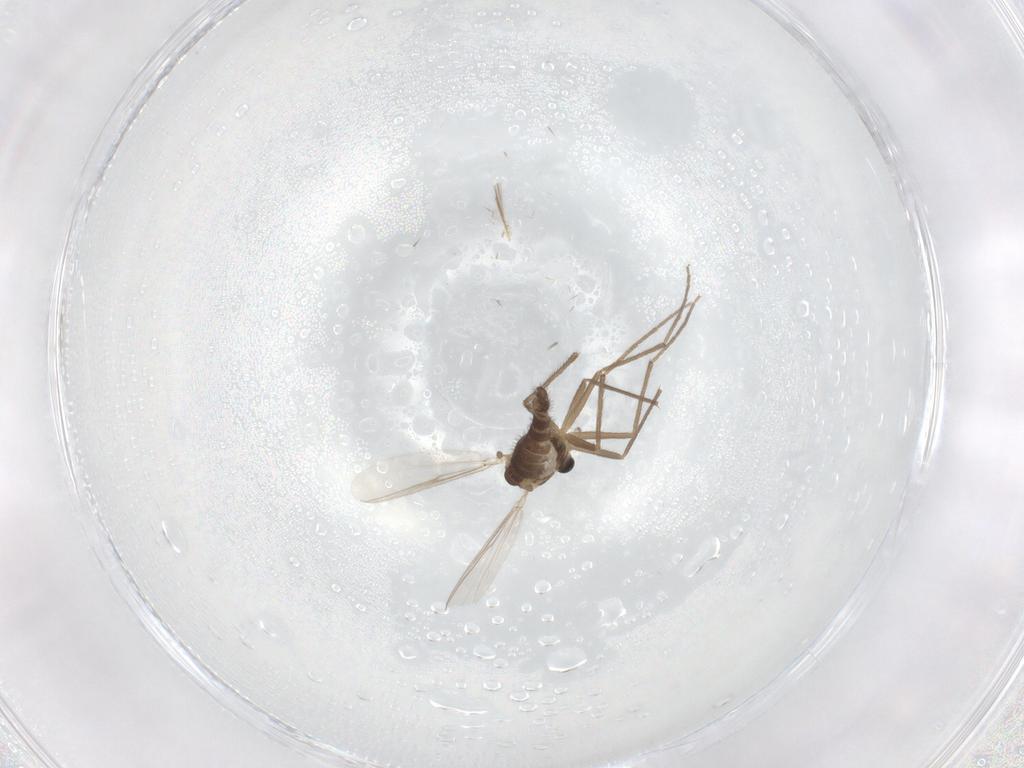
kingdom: Animalia
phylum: Arthropoda
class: Insecta
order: Diptera
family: Chironomidae
